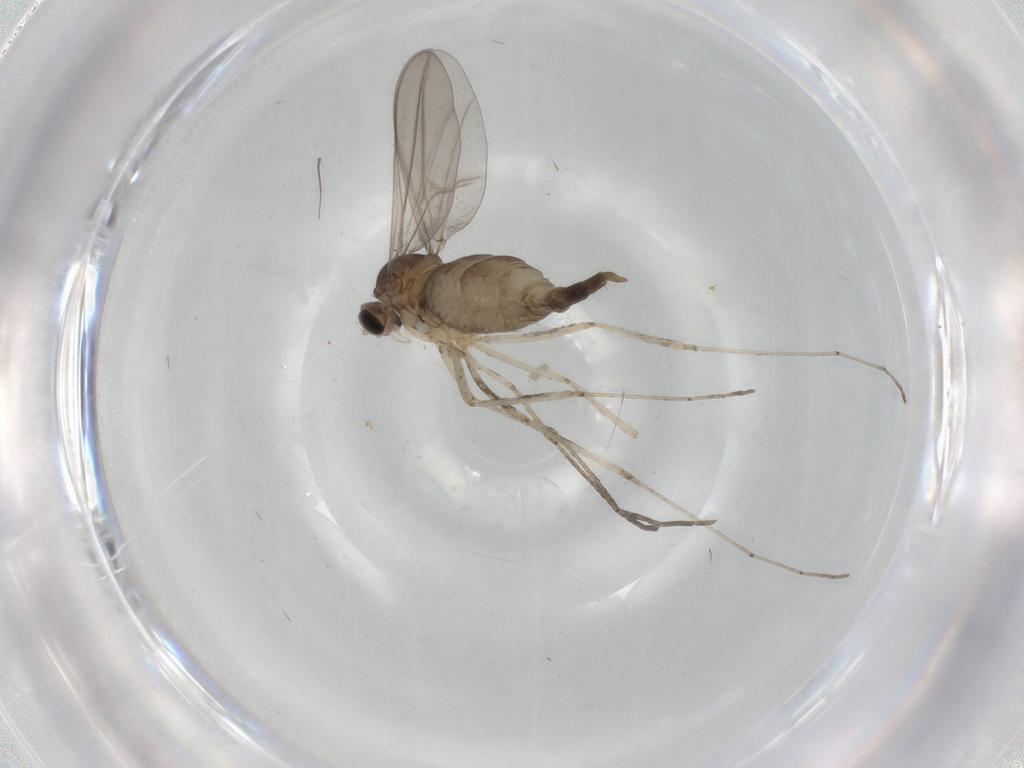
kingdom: Animalia
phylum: Arthropoda
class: Insecta
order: Diptera
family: Cecidomyiidae
